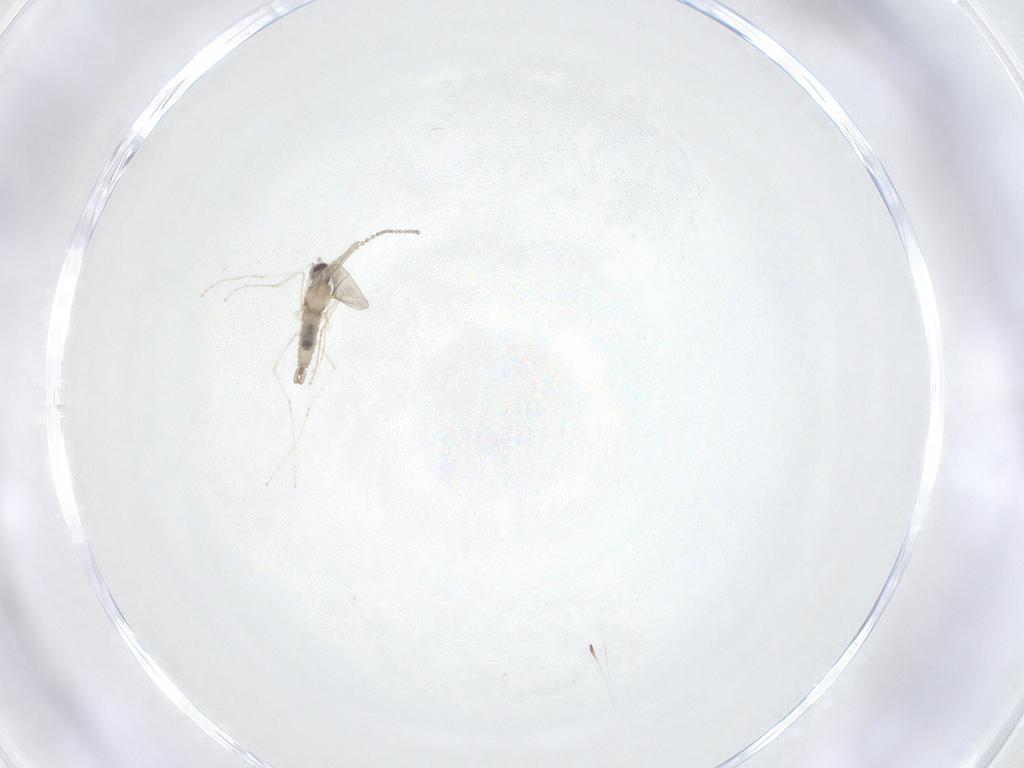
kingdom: Animalia
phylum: Arthropoda
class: Insecta
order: Diptera
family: Cecidomyiidae
